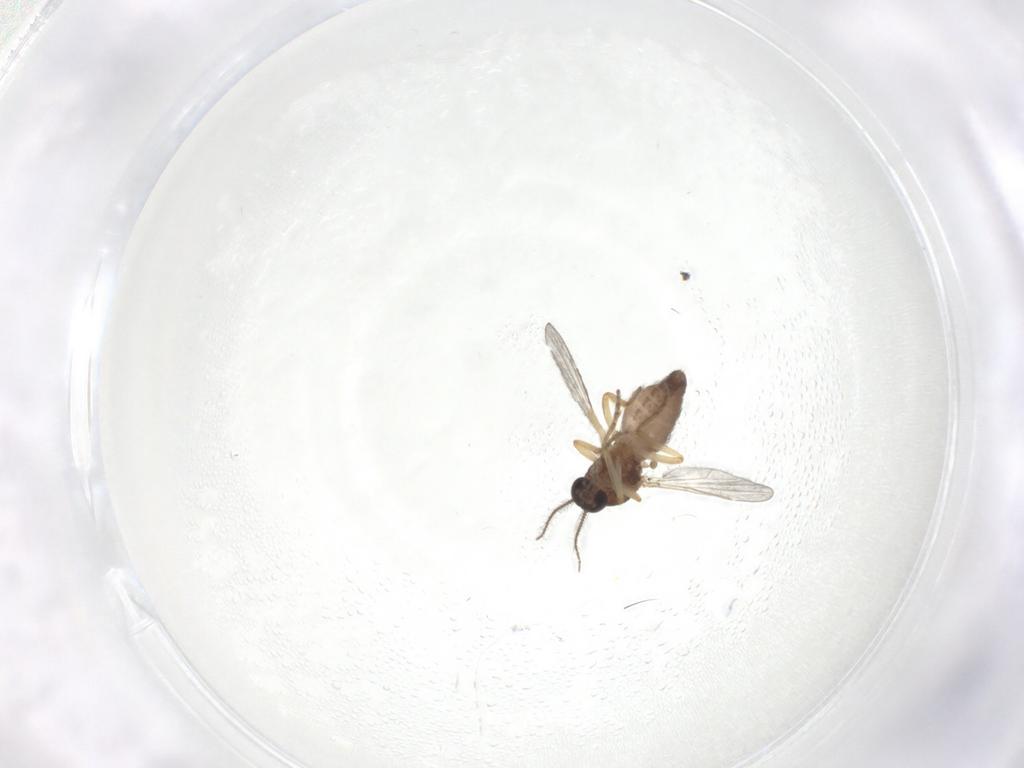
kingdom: Animalia
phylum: Arthropoda
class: Insecta
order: Diptera
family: Ceratopogonidae
